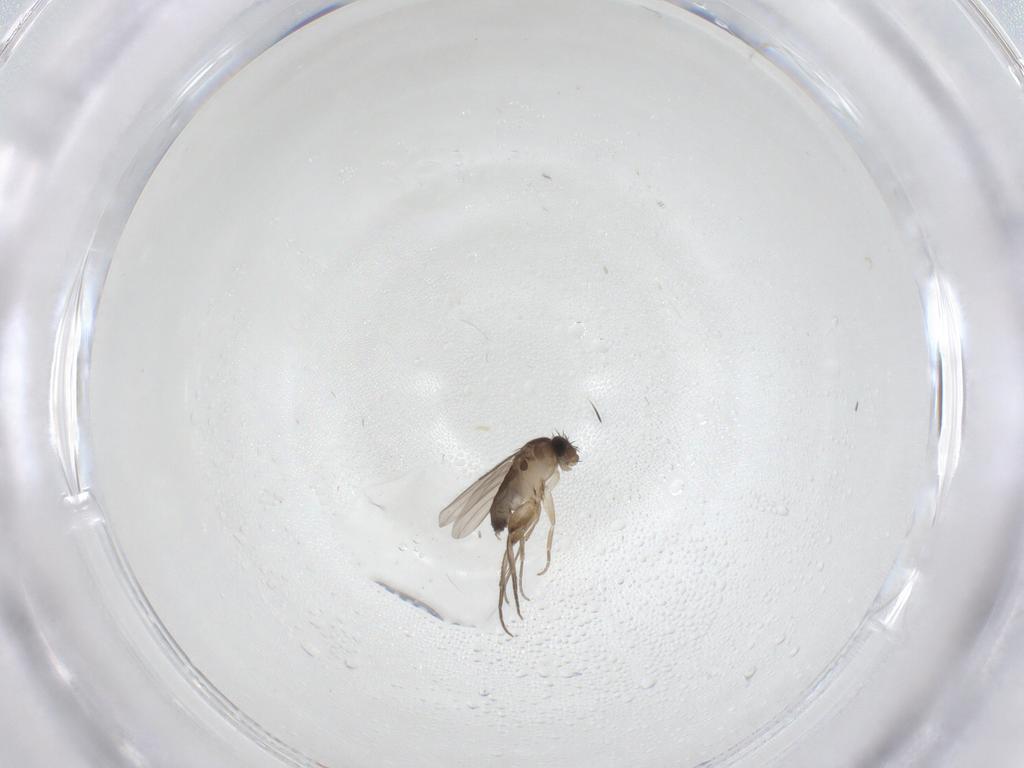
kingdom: Animalia
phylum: Arthropoda
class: Insecta
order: Diptera
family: Phoridae
